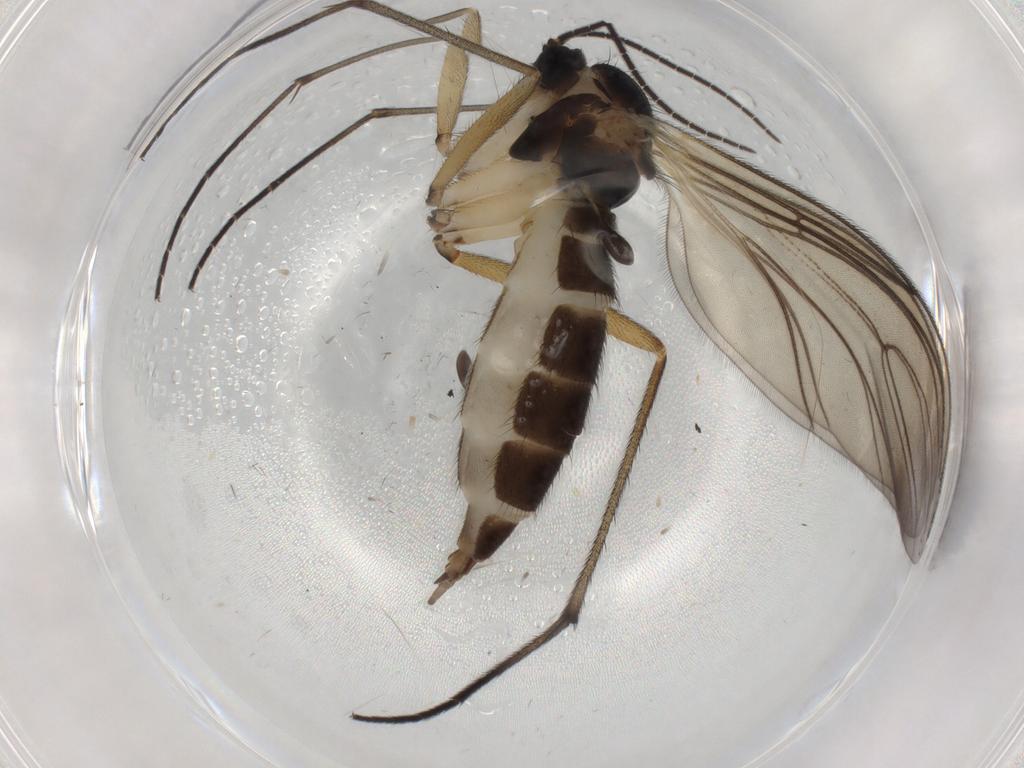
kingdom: Animalia
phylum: Arthropoda
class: Insecta
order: Diptera
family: Sciaridae
